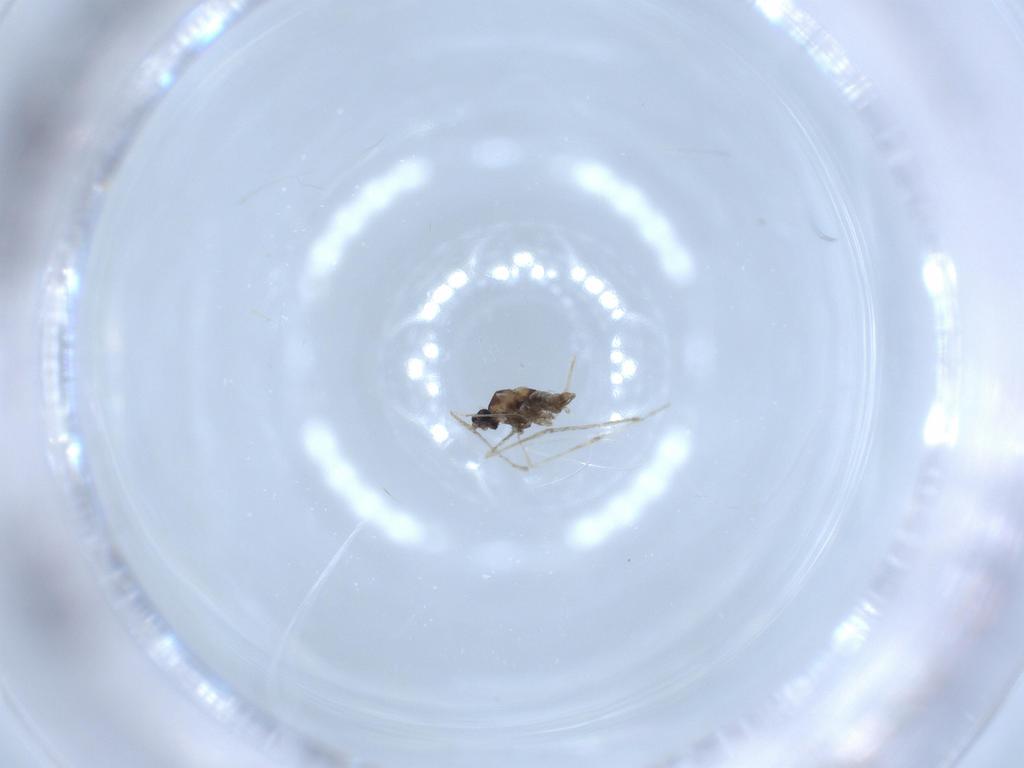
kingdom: Animalia
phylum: Arthropoda
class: Insecta
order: Diptera
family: Cecidomyiidae
